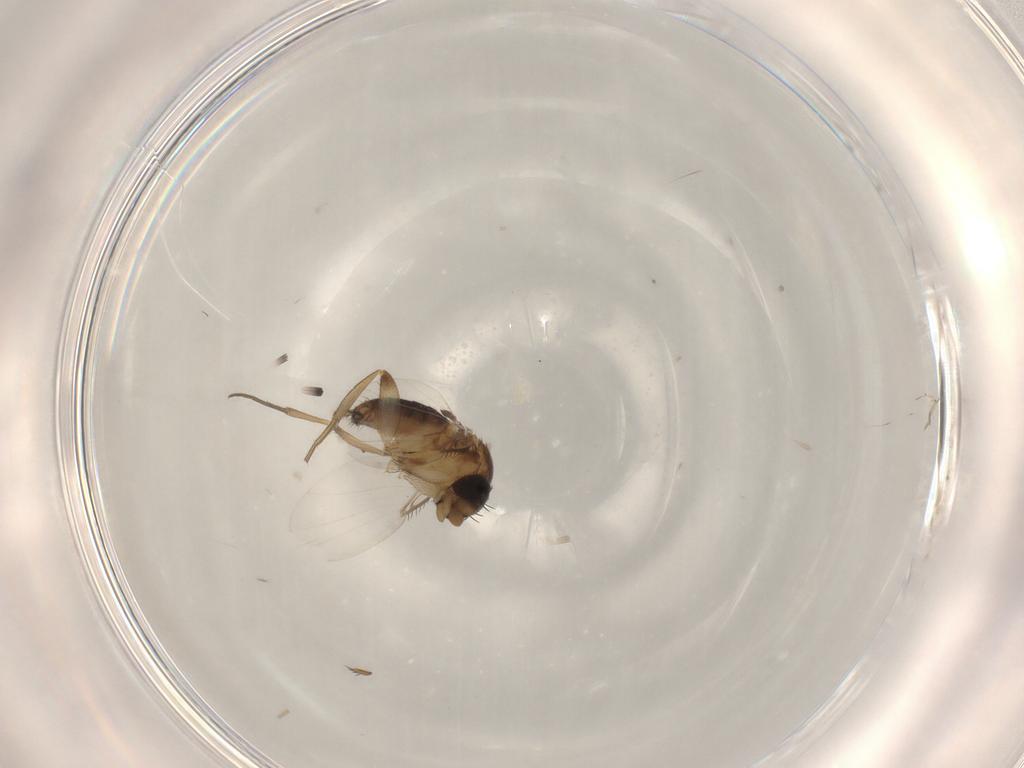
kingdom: Animalia
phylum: Arthropoda
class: Insecta
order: Diptera
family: Phoridae
